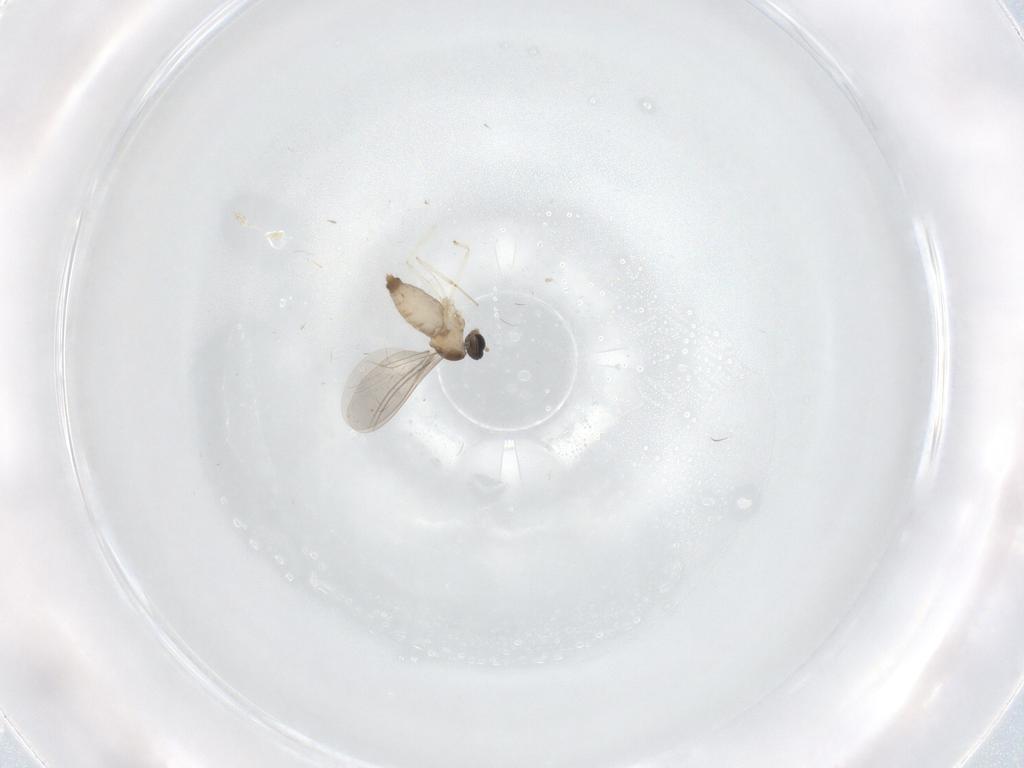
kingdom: Animalia
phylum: Arthropoda
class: Insecta
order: Diptera
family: Cecidomyiidae
